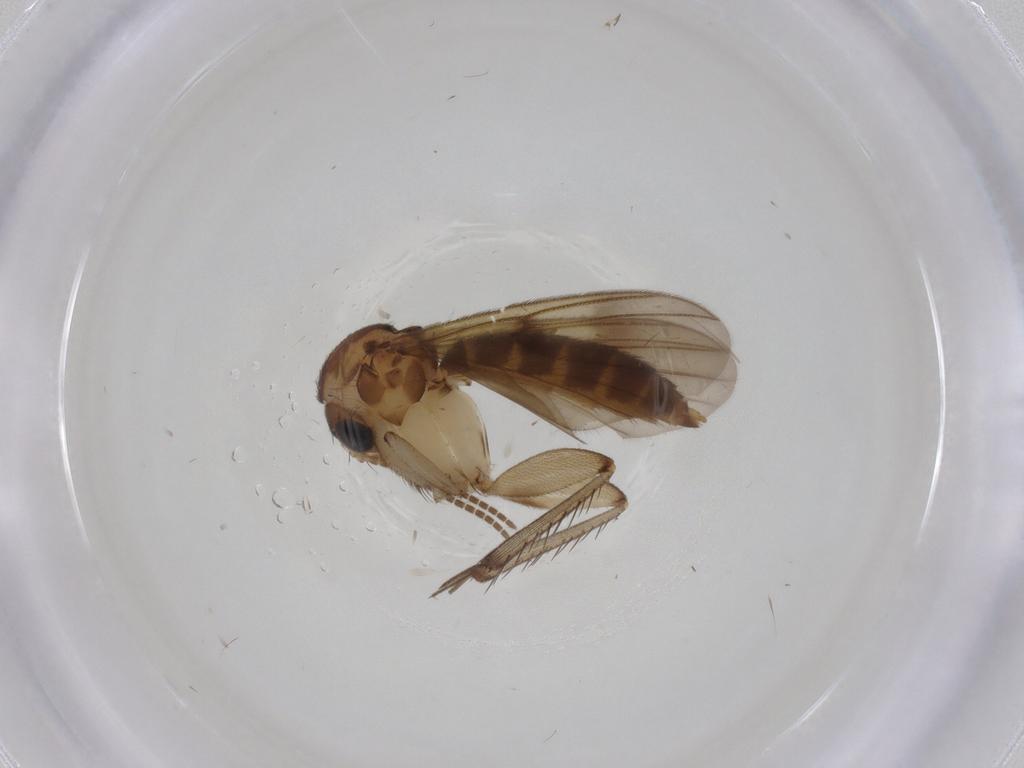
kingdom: Animalia
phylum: Arthropoda
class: Insecta
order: Diptera
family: Mycetophilidae
